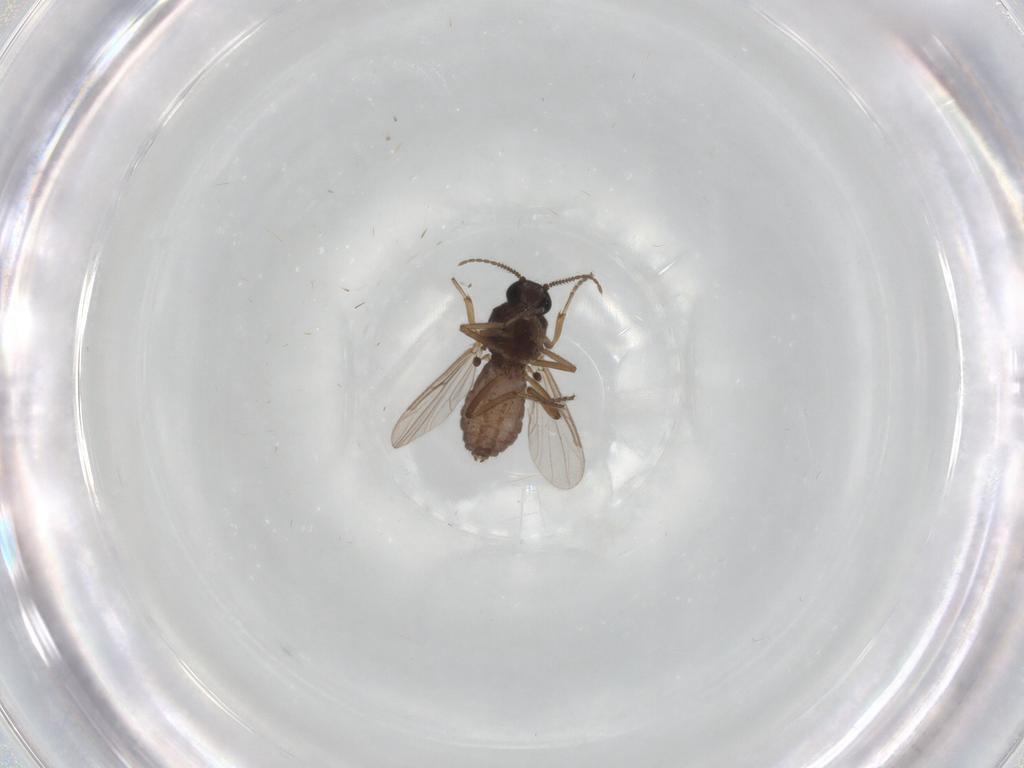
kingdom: Animalia
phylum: Arthropoda
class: Insecta
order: Diptera
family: Ceratopogonidae
